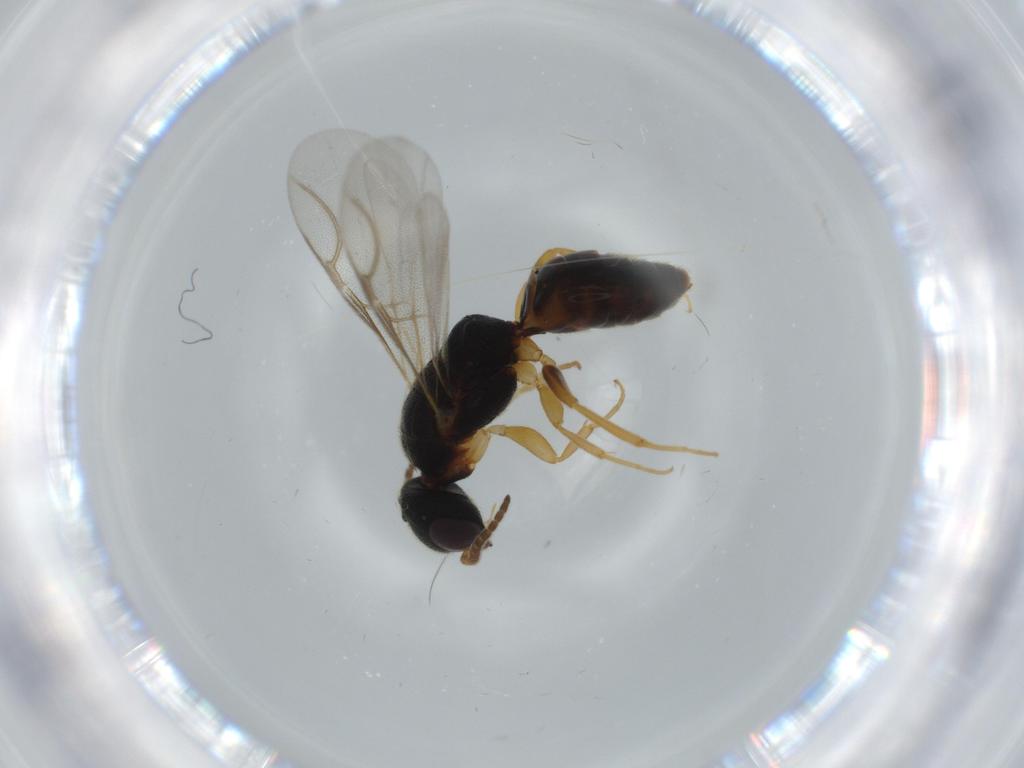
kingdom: Animalia
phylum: Arthropoda
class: Insecta
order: Hymenoptera
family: Bethylidae
